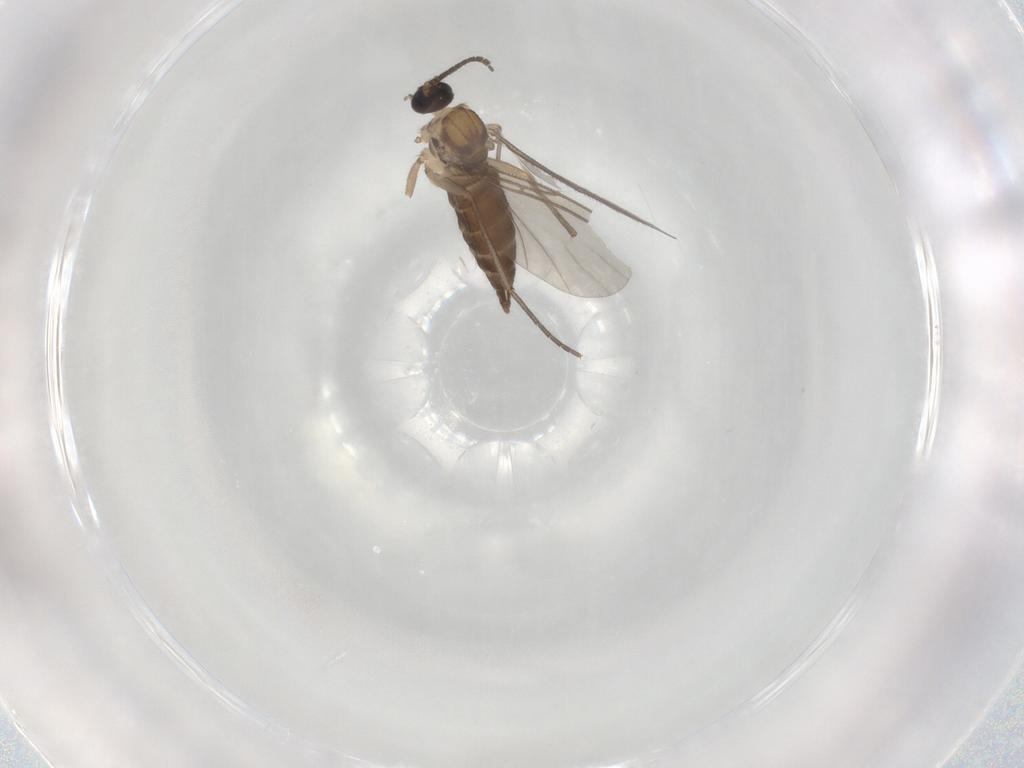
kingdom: Animalia
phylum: Arthropoda
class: Insecta
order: Diptera
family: Sciaridae
